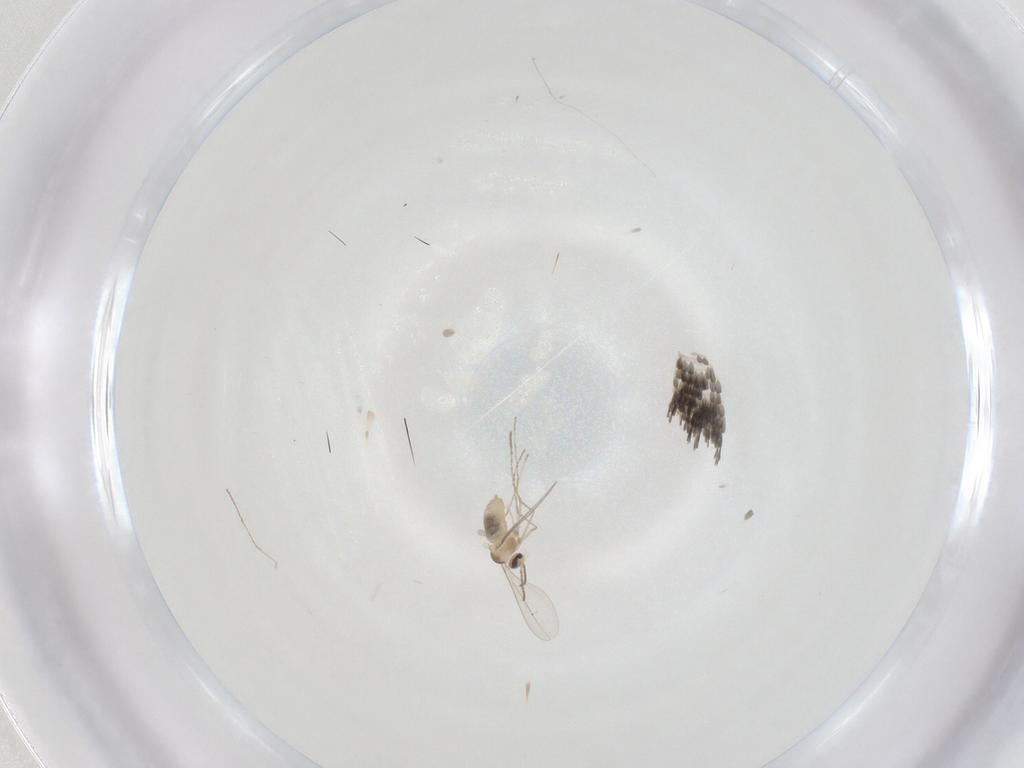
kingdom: Animalia
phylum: Arthropoda
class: Insecta
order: Diptera
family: Cecidomyiidae
